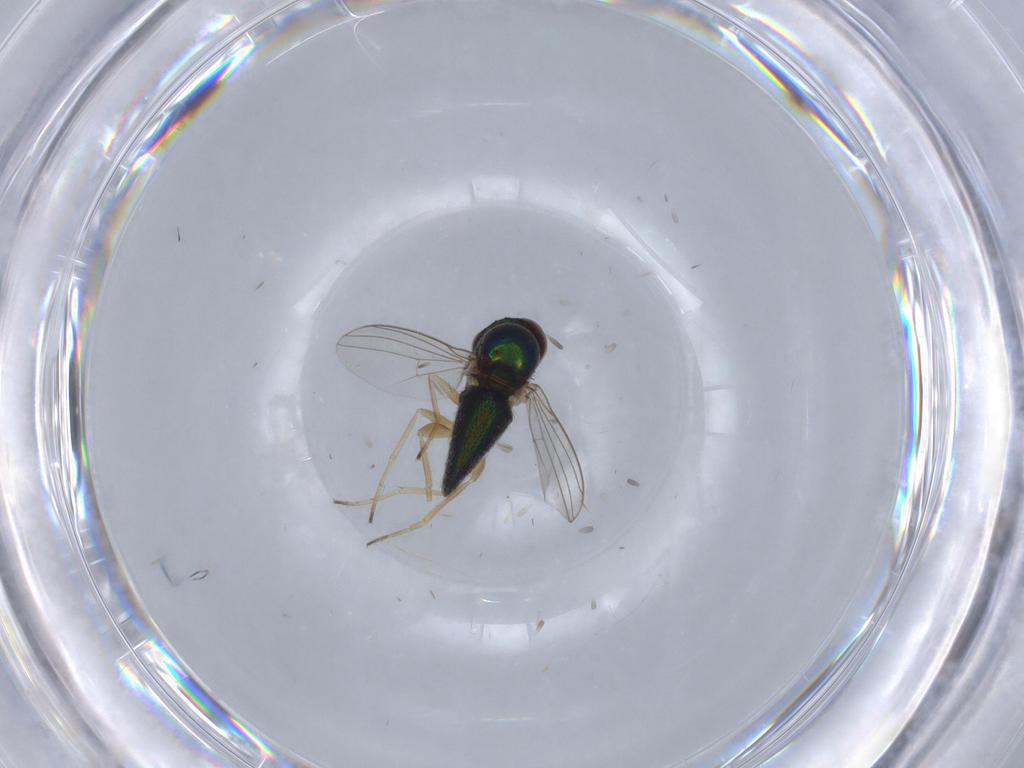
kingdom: Animalia
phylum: Arthropoda
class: Insecta
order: Diptera
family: Dolichopodidae
